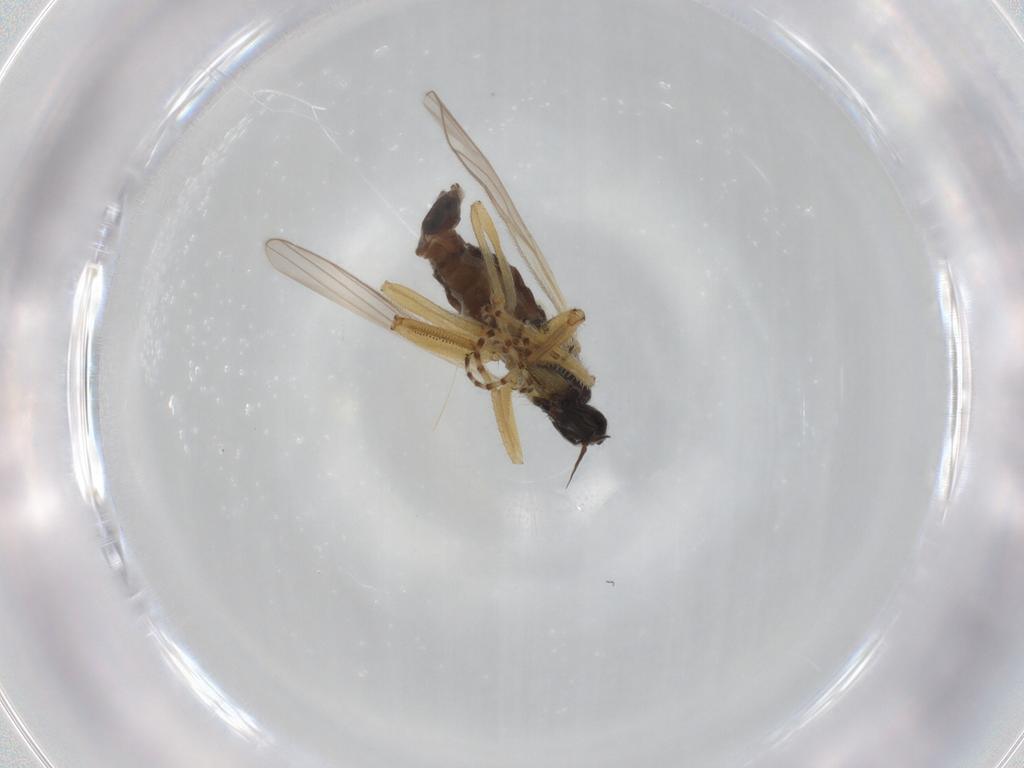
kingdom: Animalia
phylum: Arthropoda
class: Insecta
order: Diptera
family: Chironomidae
